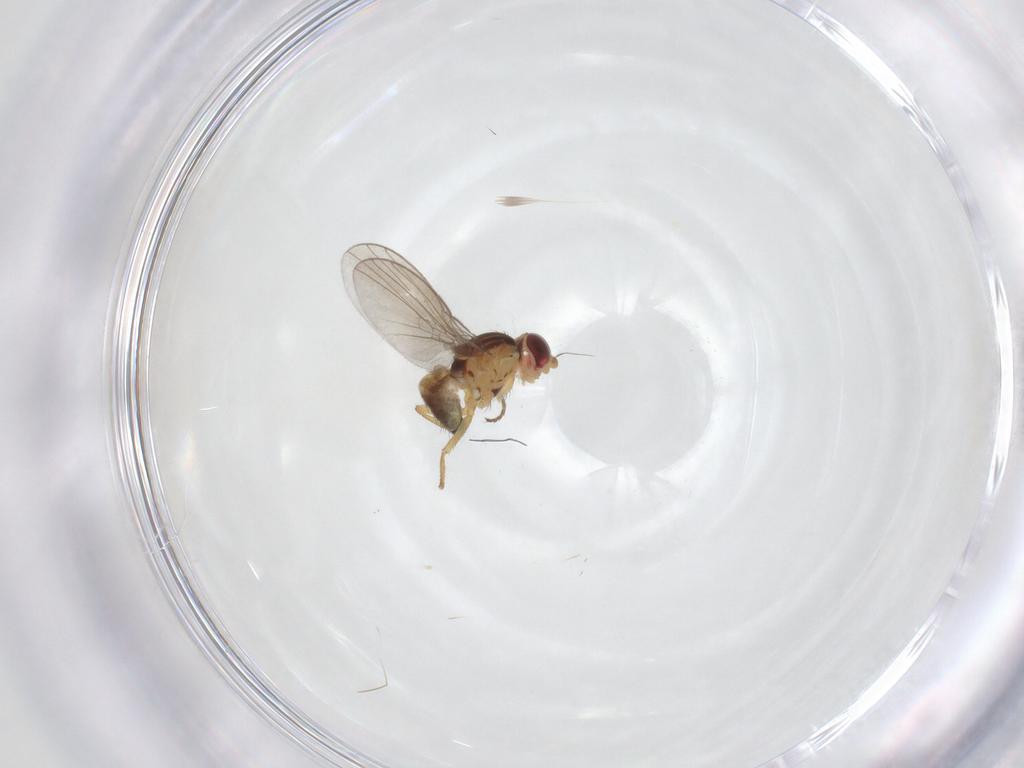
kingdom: Animalia
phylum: Arthropoda
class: Insecta
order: Diptera
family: Agromyzidae
